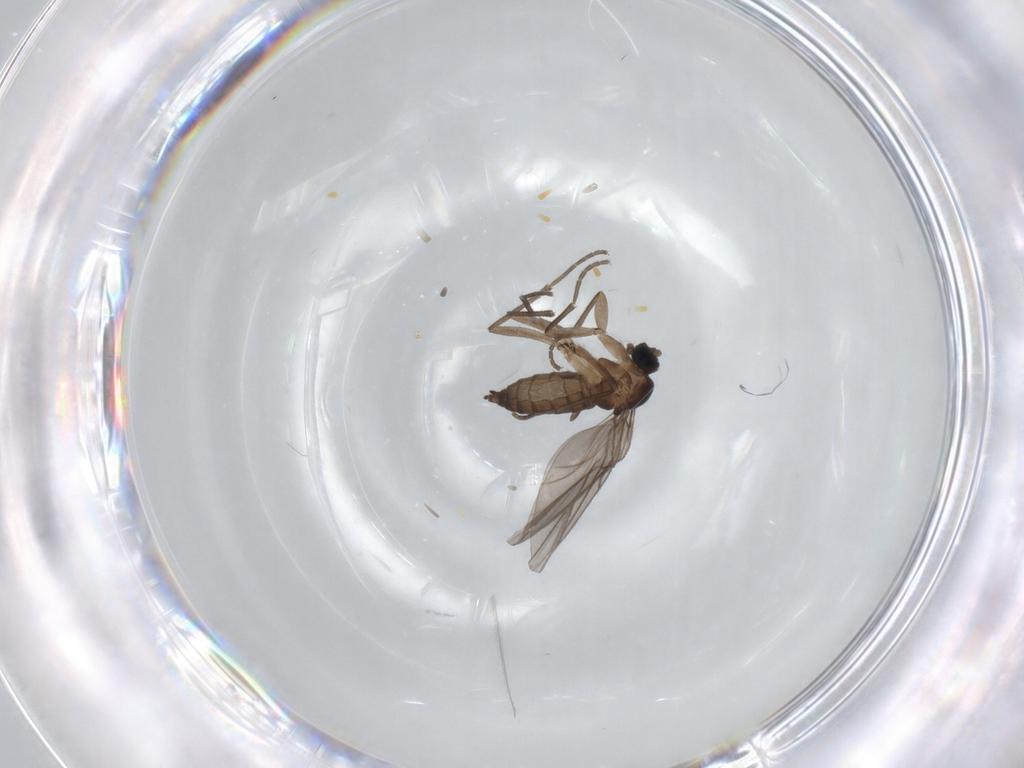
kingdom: Animalia
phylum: Arthropoda
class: Insecta
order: Diptera
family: Sciaridae
